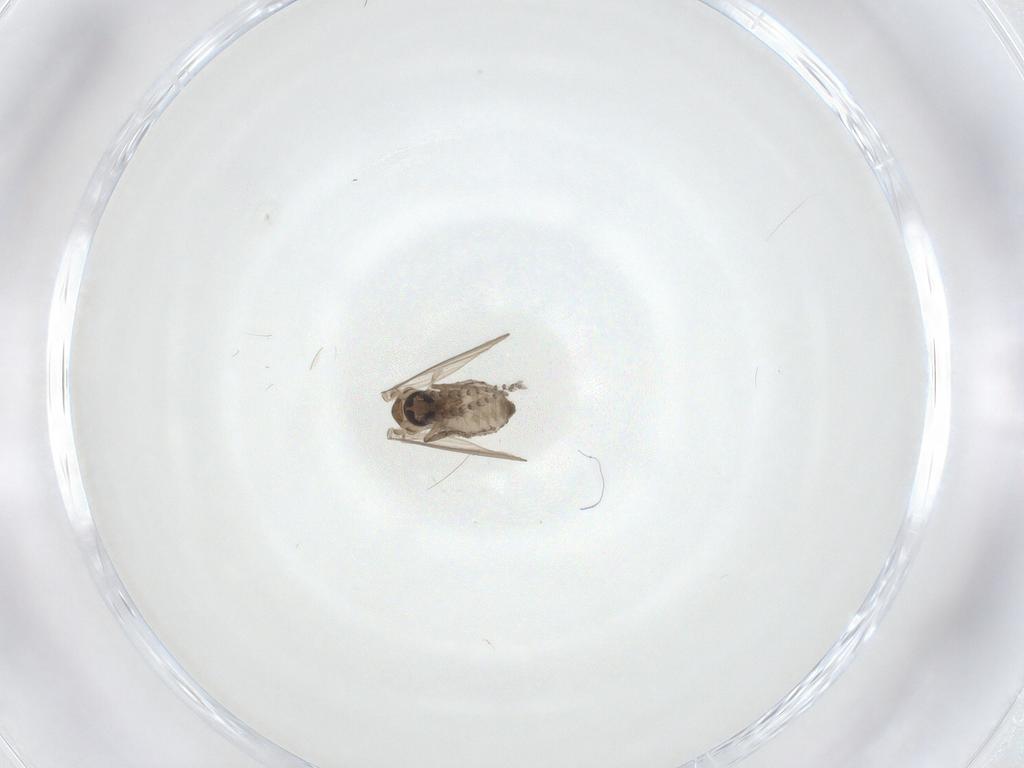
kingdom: Animalia
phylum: Arthropoda
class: Insecta
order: Diptera
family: Psychodidae
